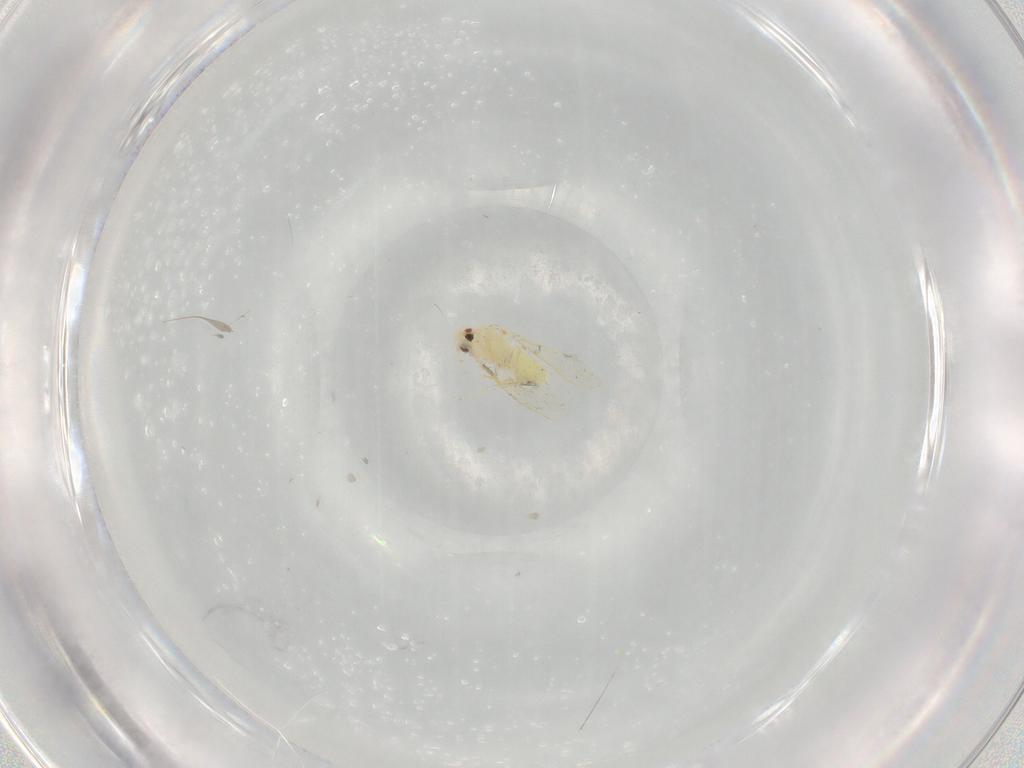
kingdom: Animalia
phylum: Arthropoda
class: Insecta
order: Hemiptera
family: Aleyrodidae
